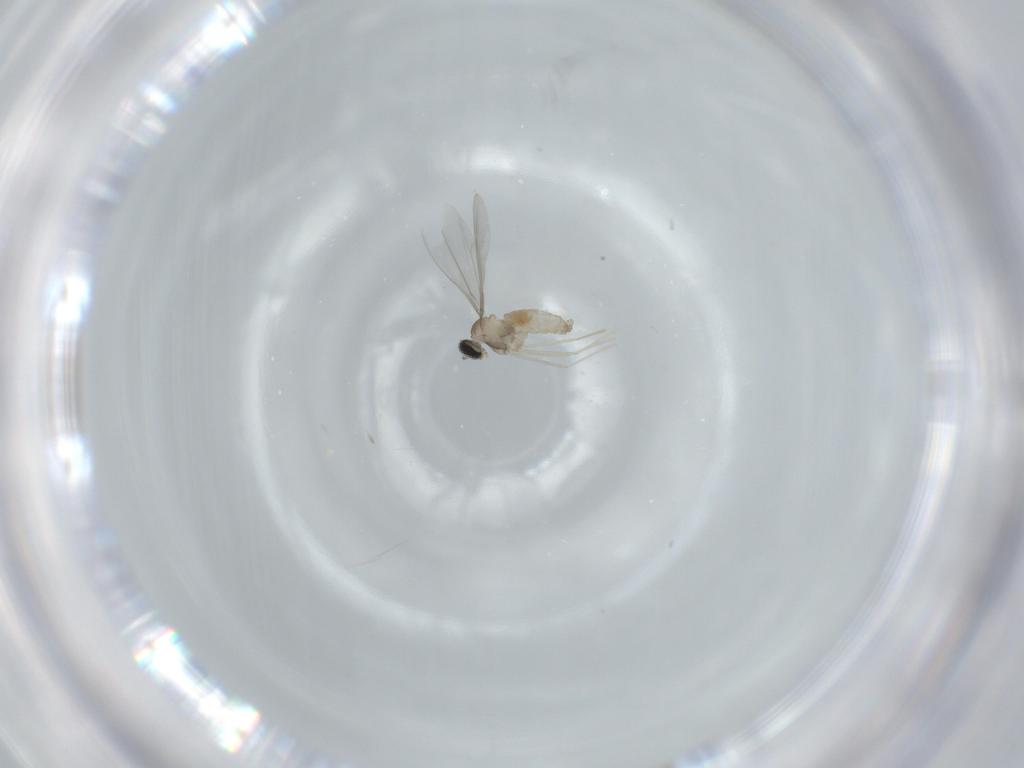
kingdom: Animalia
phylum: Arthropoda
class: Insecta
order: Diptera
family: Cecidomyiidae
